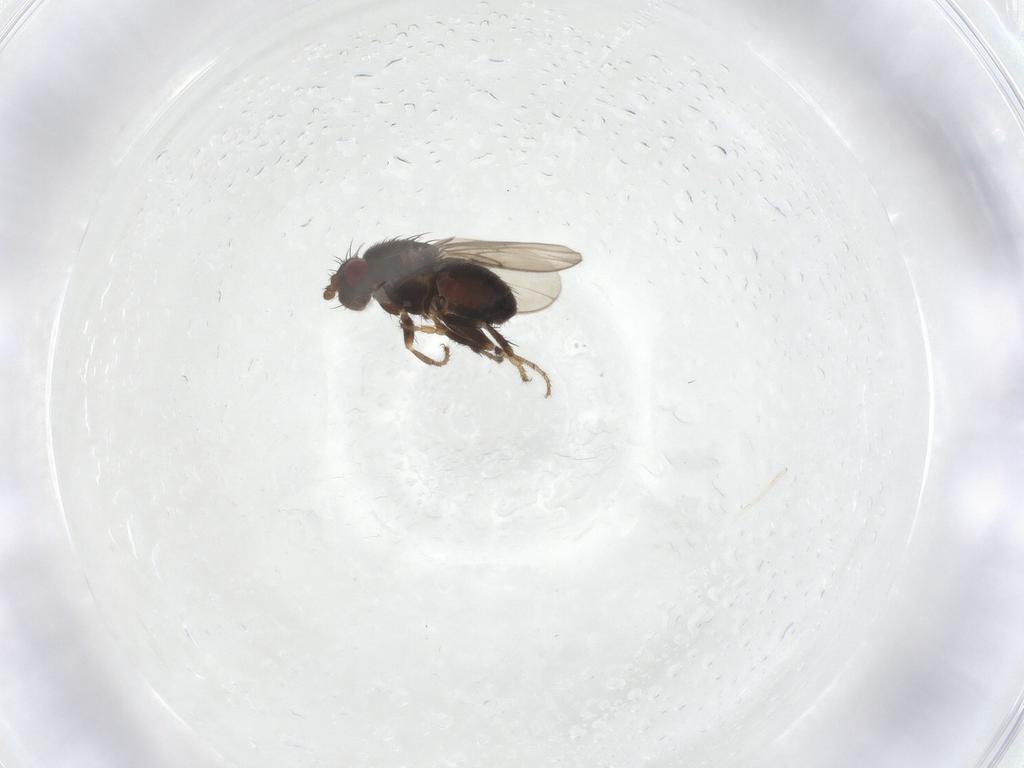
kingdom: Animalia
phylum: Arthropoda
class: Insecta
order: Diptera
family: Sphaeroceridae
